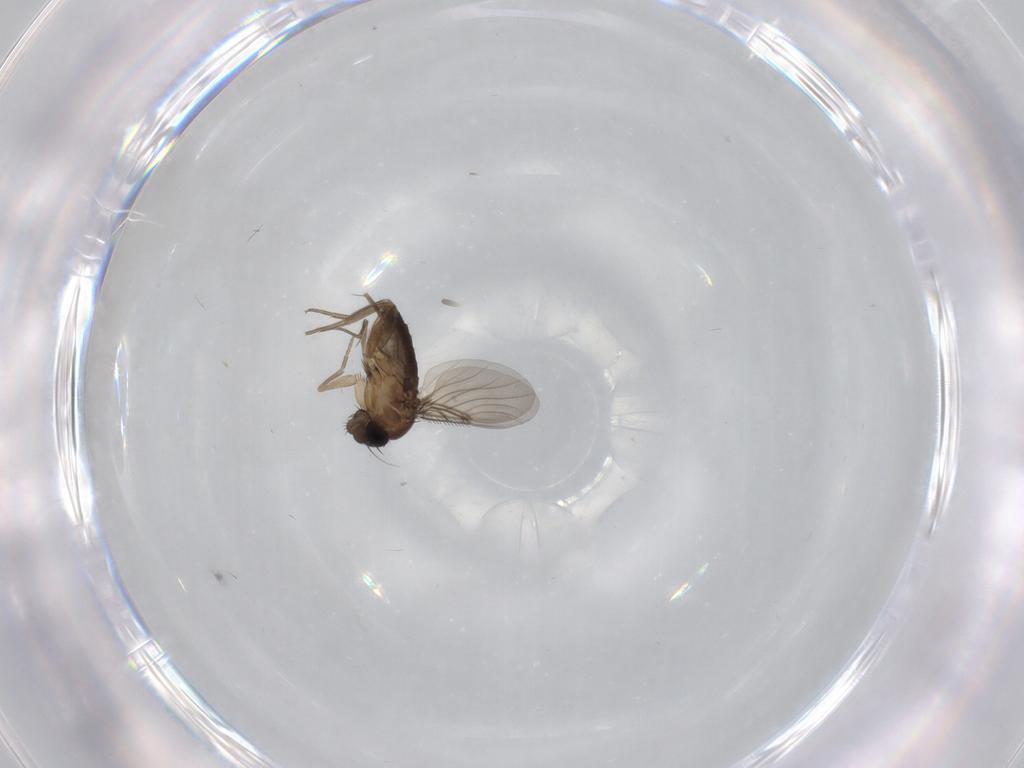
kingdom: Animalia
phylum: Arthropoda
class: Insecta
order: Diptera
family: Phoridae
